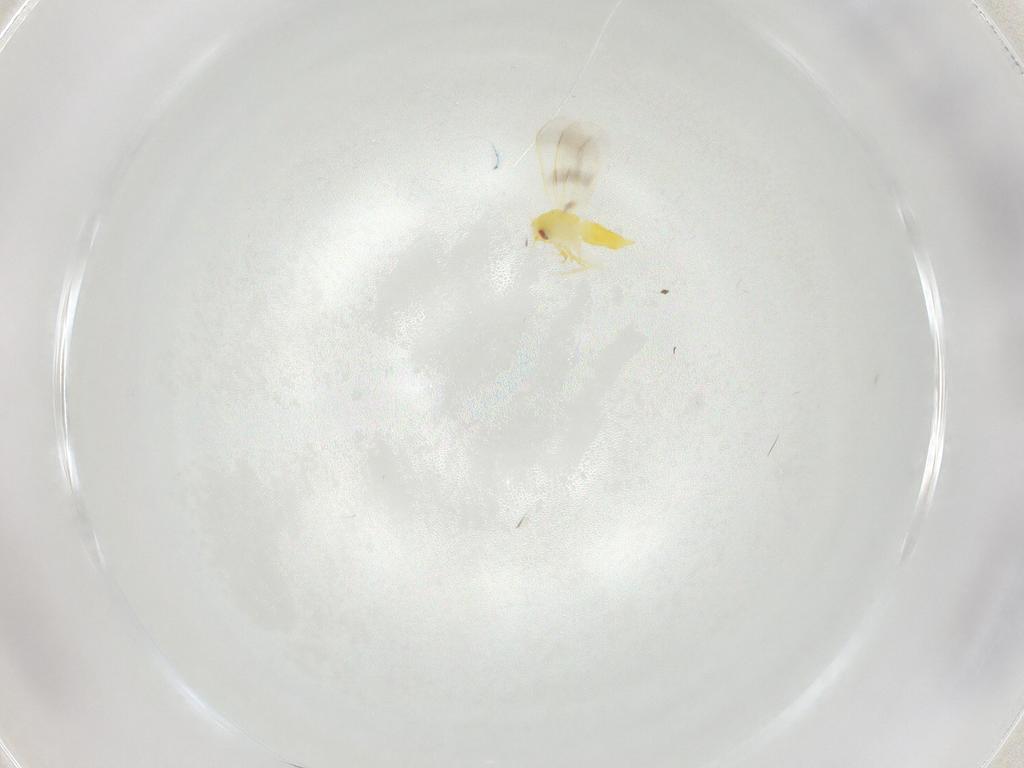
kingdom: Animalia
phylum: Arthropoda
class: Insecta
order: Hemiptera
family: Aleyrodidae
